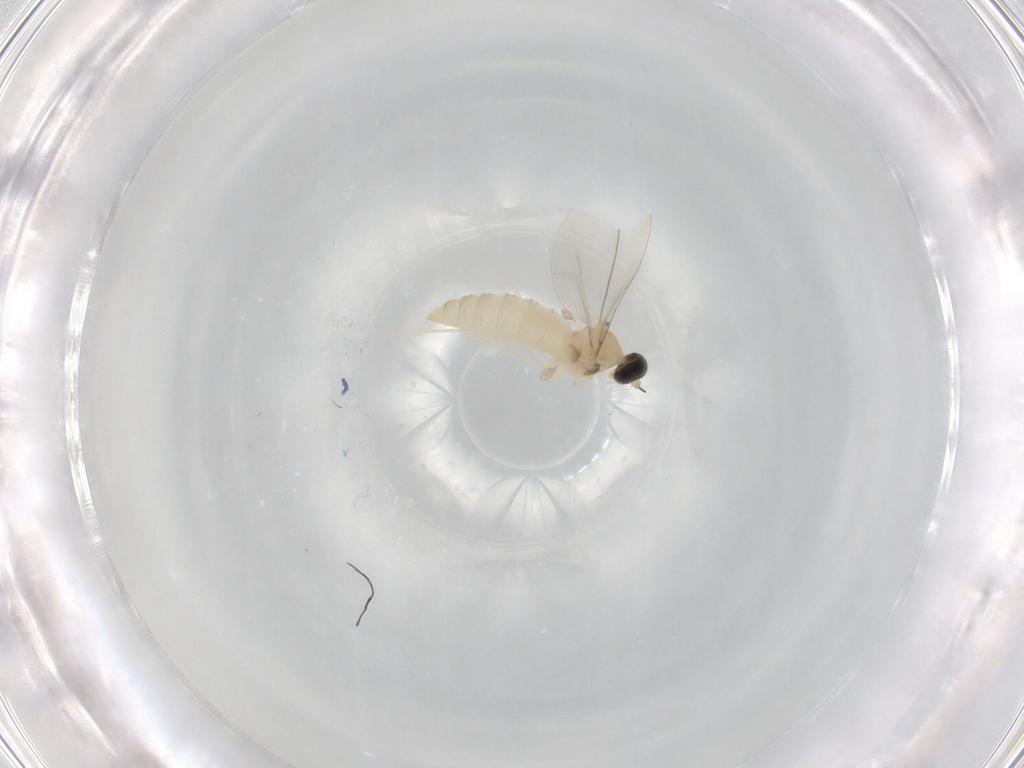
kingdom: Animalia
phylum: Arthropoda
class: Insecta
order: Diptera
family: Cecidomyiidae
